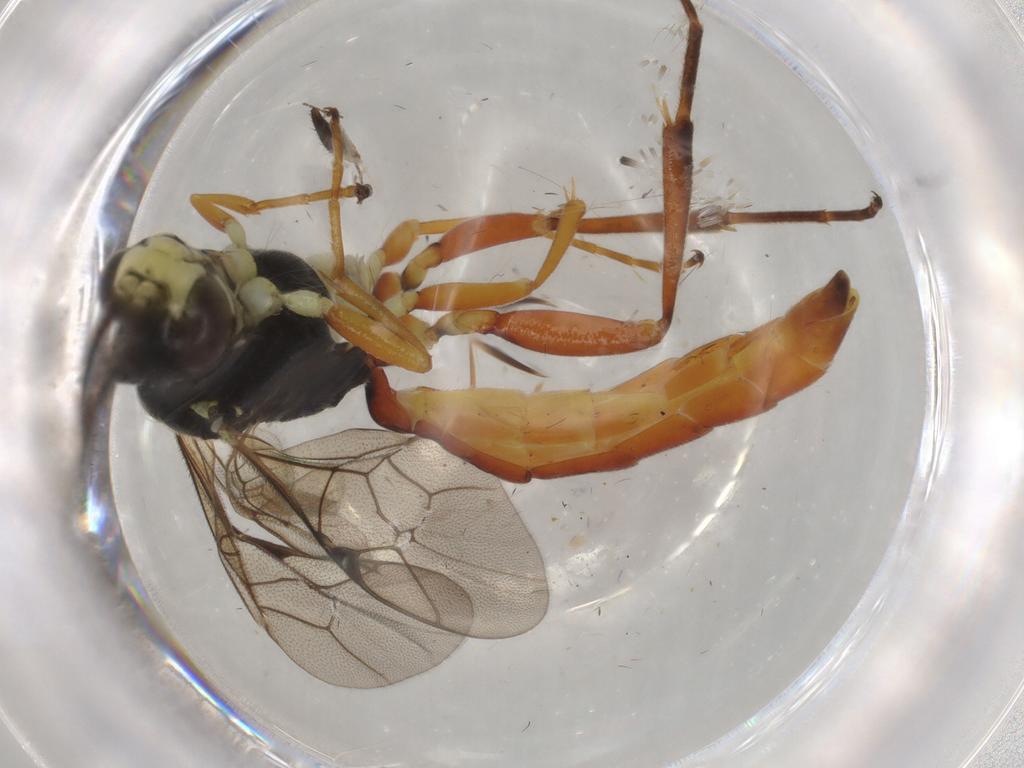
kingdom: Animalia
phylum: Arthropoda
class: Insecta
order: Hymenoptera
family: Ichneumonidae
